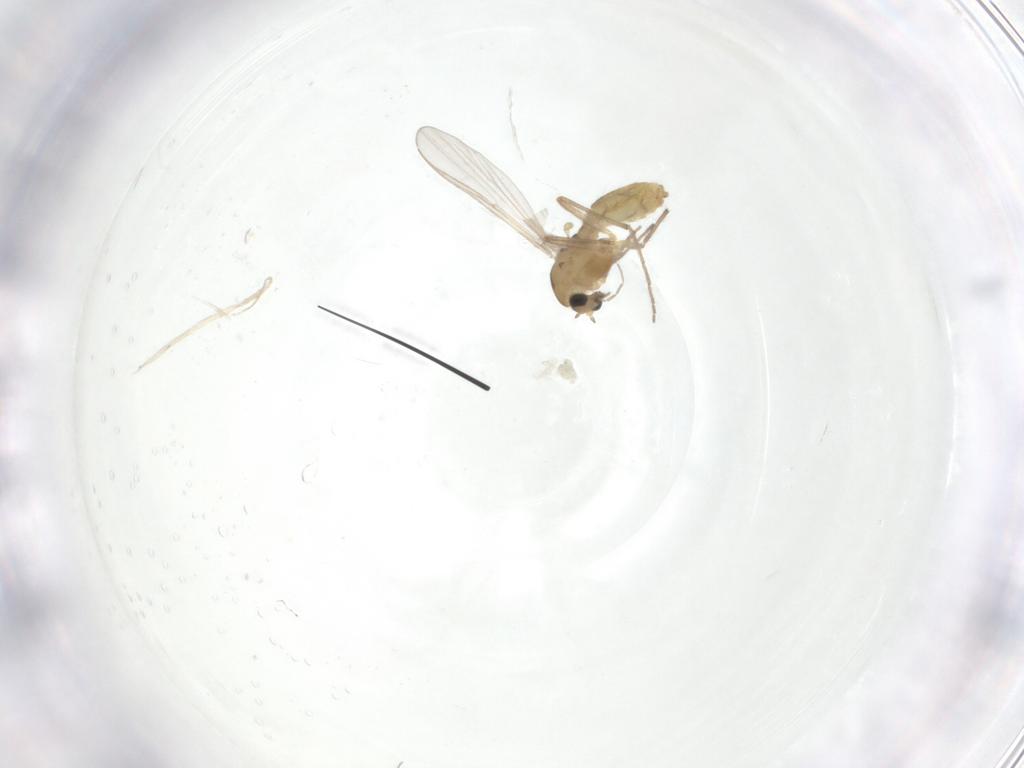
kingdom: Animalia
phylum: Arthropoda
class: Insecta
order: Diptera
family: Chironomidae
